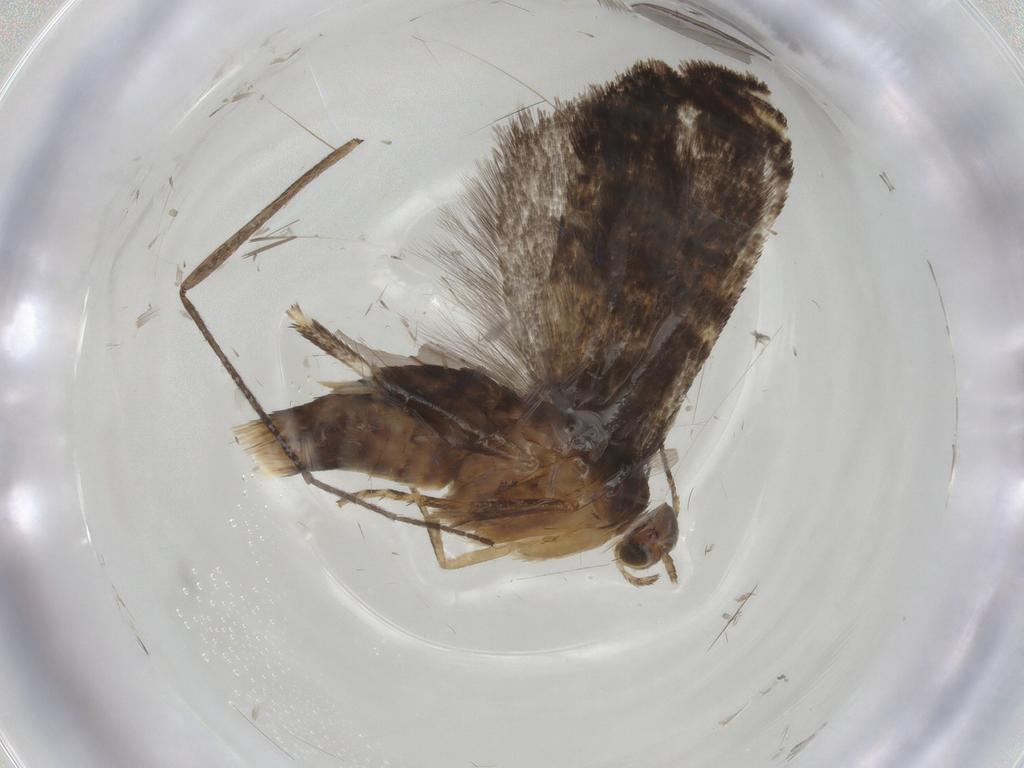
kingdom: Animalia
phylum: Arthropoda
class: Insecta
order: Lepidoptera
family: Glyphipterigidae
